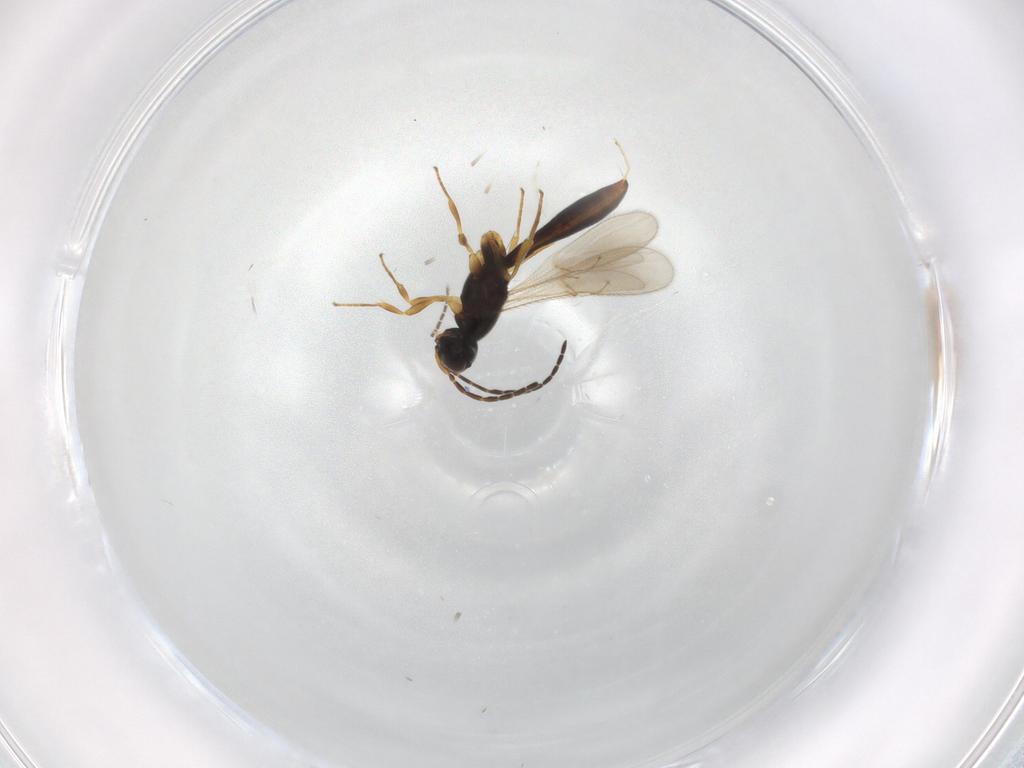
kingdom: Animalia
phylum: Arthropoda
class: Insecta
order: Hymenoptera
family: Scelionidae
